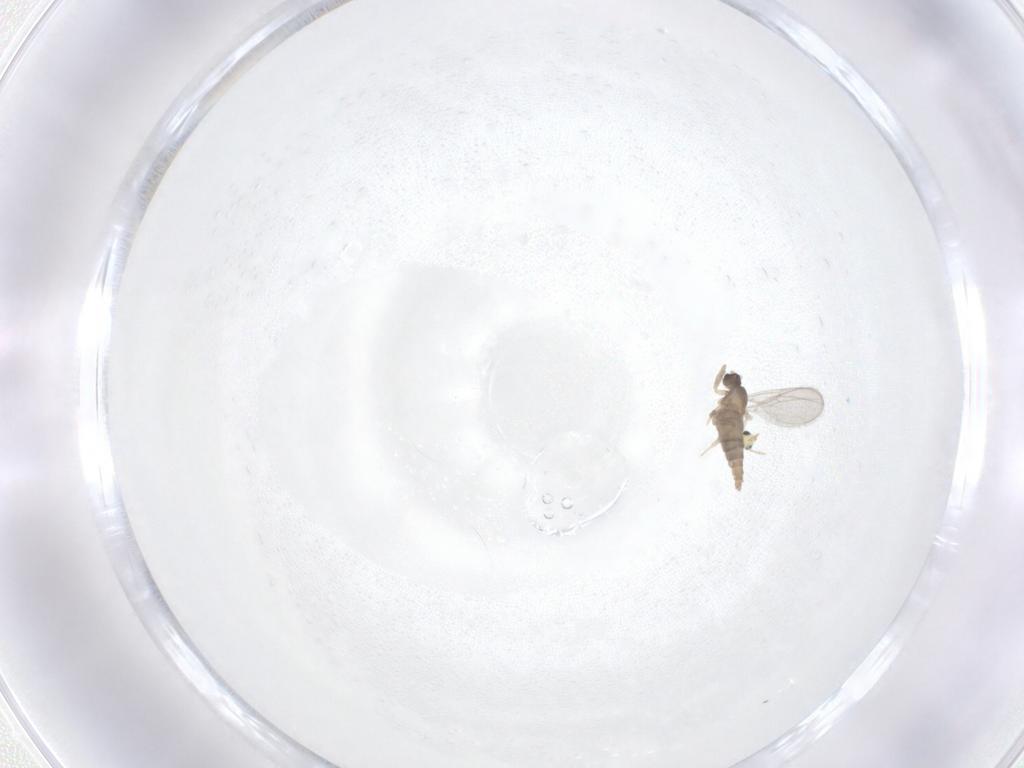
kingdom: Animalia
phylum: Arthropoda
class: Insecta
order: Diptera
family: Cecidomyiidae
